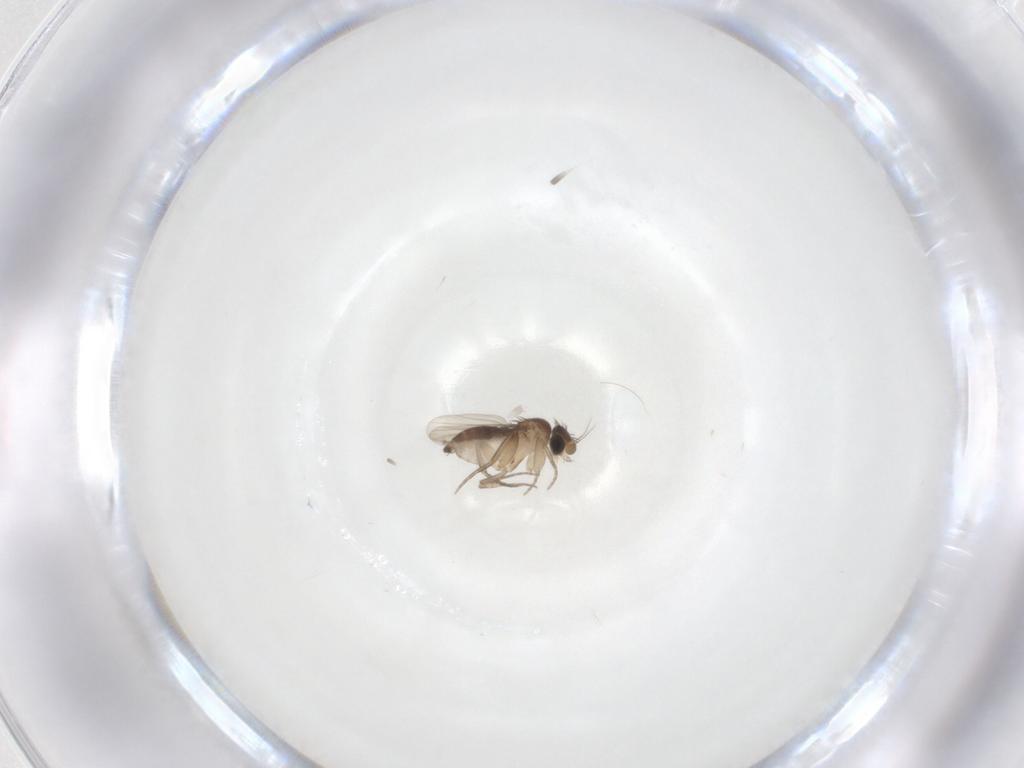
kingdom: Animalia
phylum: Arthropoda
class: Insecta
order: Diptera
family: Phoridae
